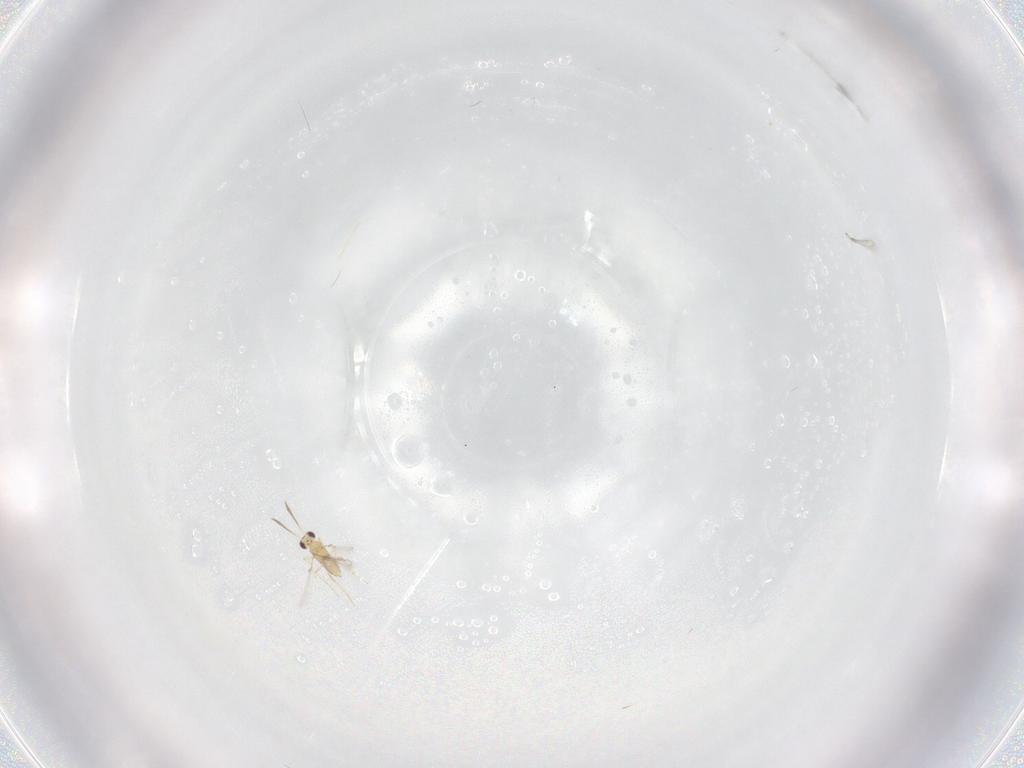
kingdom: Animalia
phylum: Arthropoda
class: Insecta
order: Hymenoptera
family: Mymaridae
